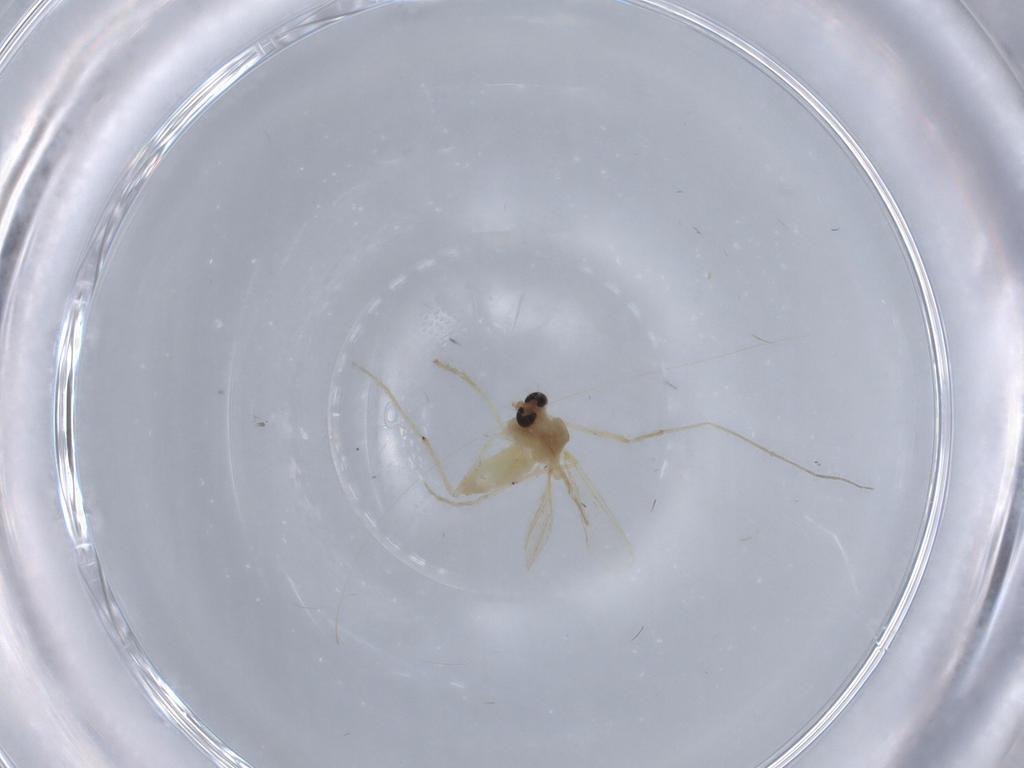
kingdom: Animalia
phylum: Arthropoda
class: Insecta
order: Diptera
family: Chironomidae
